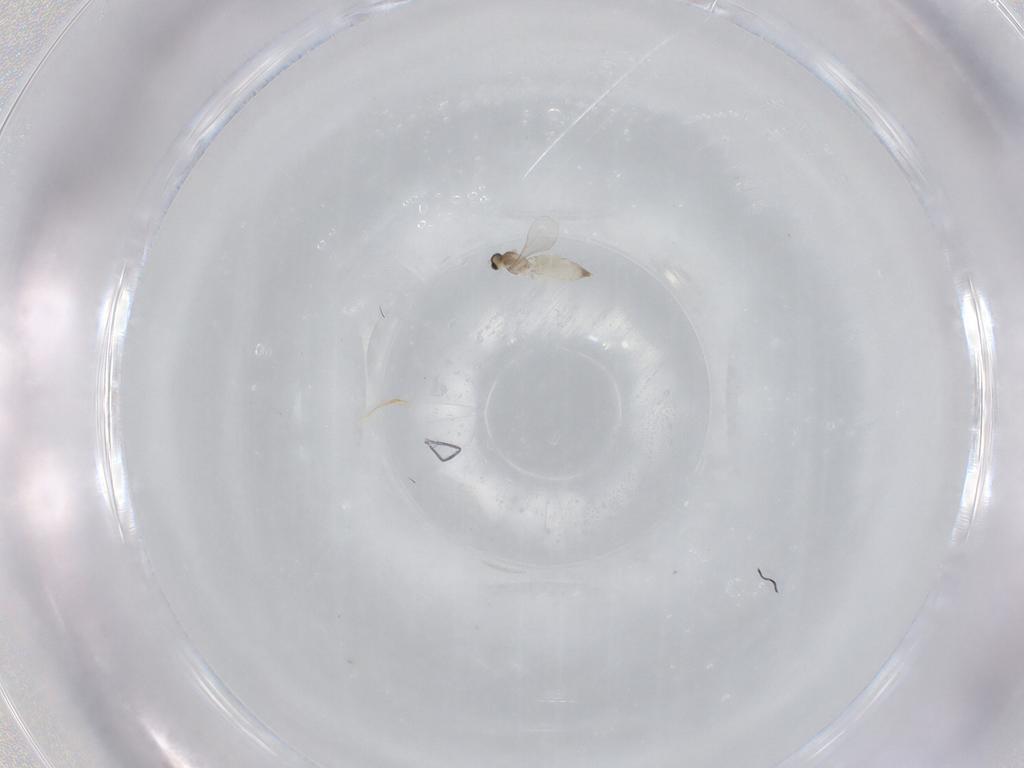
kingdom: Animalia
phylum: Arthropoda
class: Insecta
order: Diptera
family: Tabanidae
